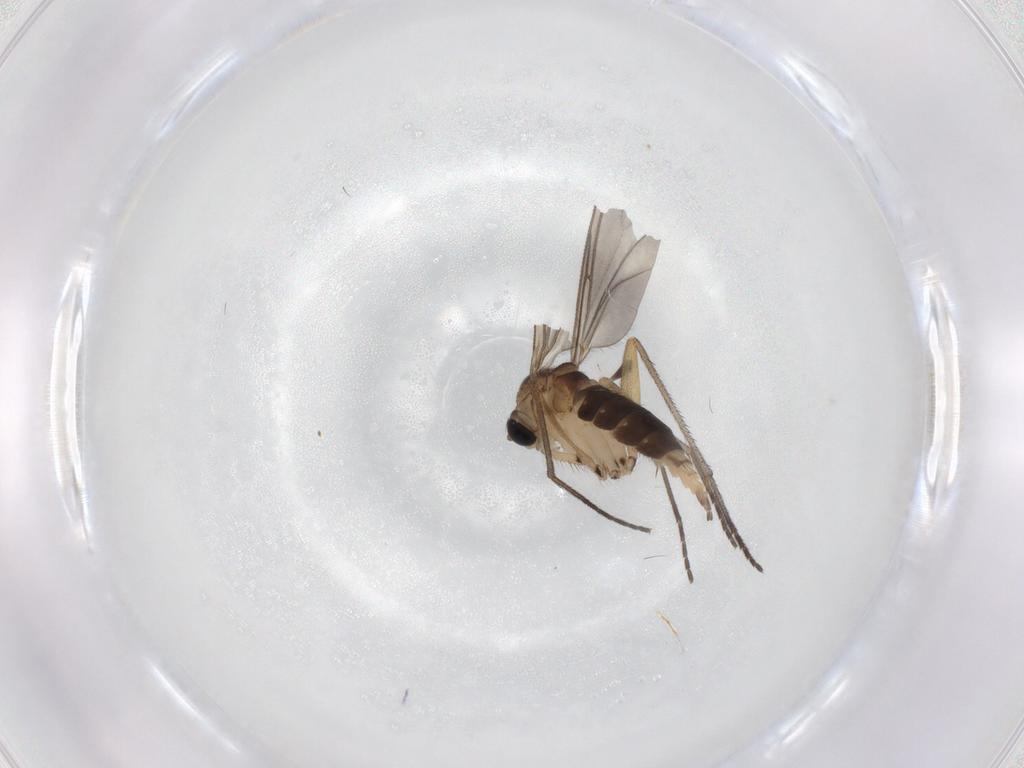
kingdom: Animalia
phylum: Arthropoda
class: Insecta
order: Diptera
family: Sciaridae
